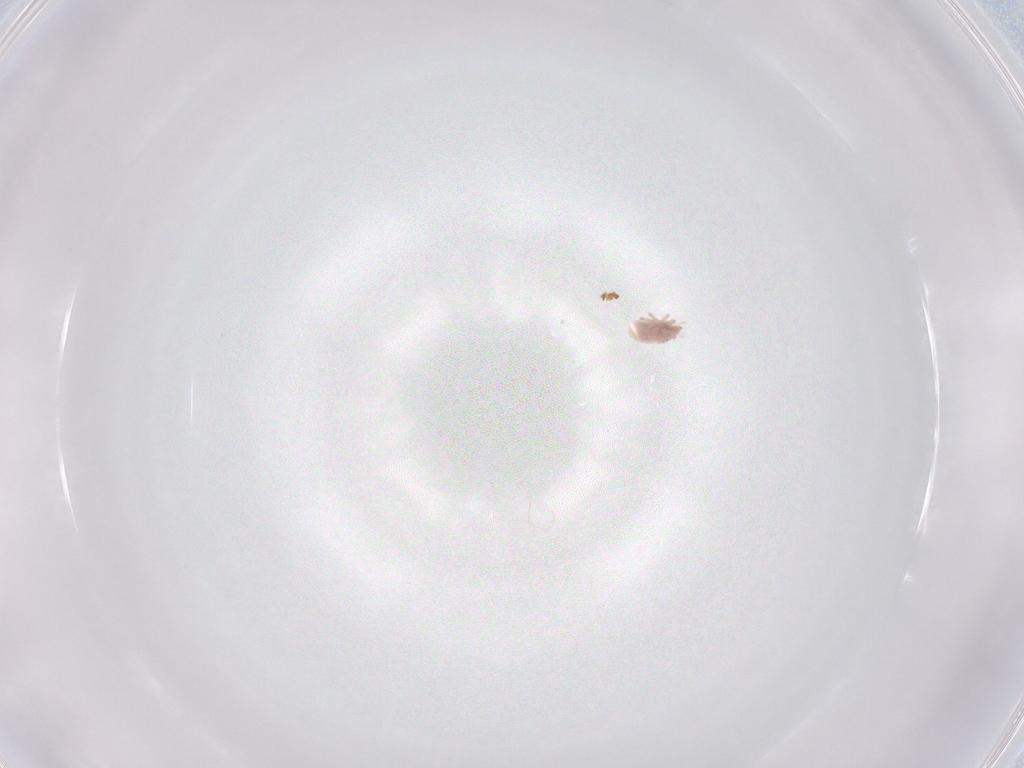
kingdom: Animalia
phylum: Arthropoda
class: Arachnida
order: Trombidiformes
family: Bdellidae
